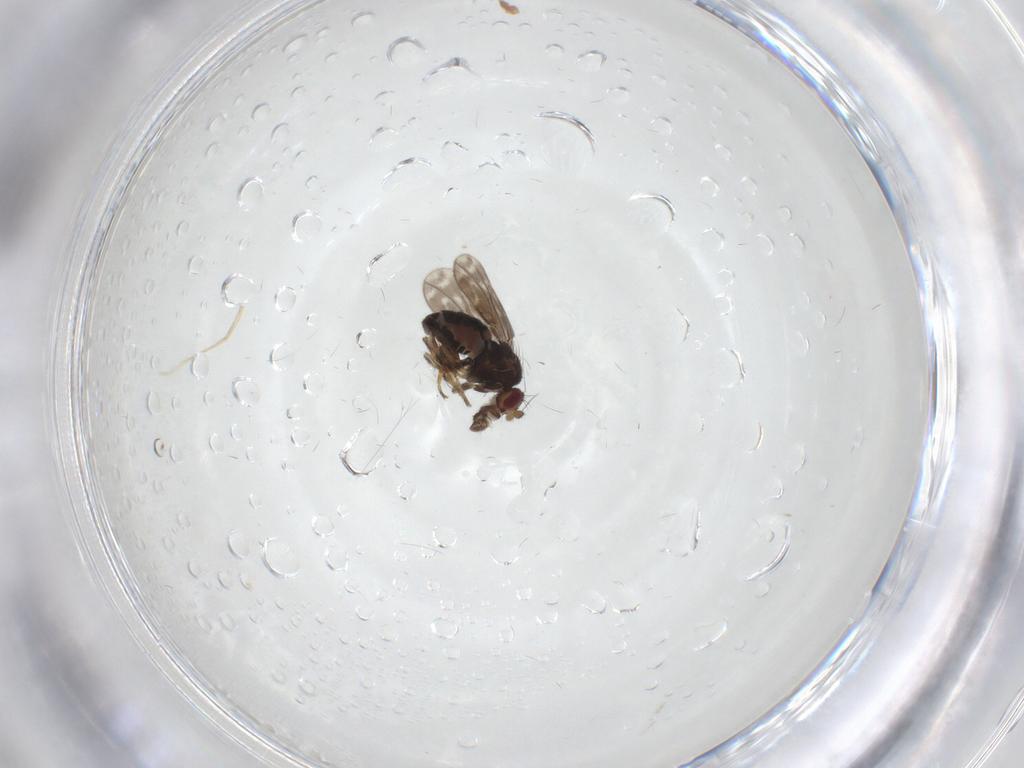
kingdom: Animalia
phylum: Arthropoda
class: Insecta
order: Diptera
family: Sphaeroceridae
